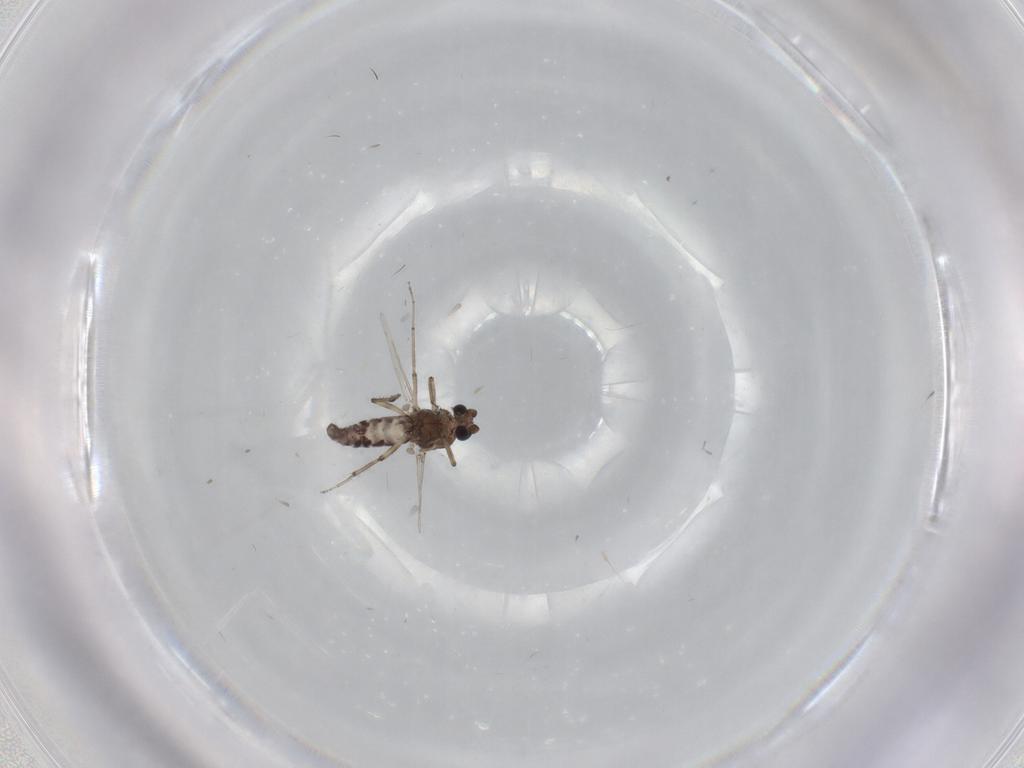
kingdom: Animalia
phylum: Arthropoda
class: Insecta
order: Diptera
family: Ceratopogonidae
